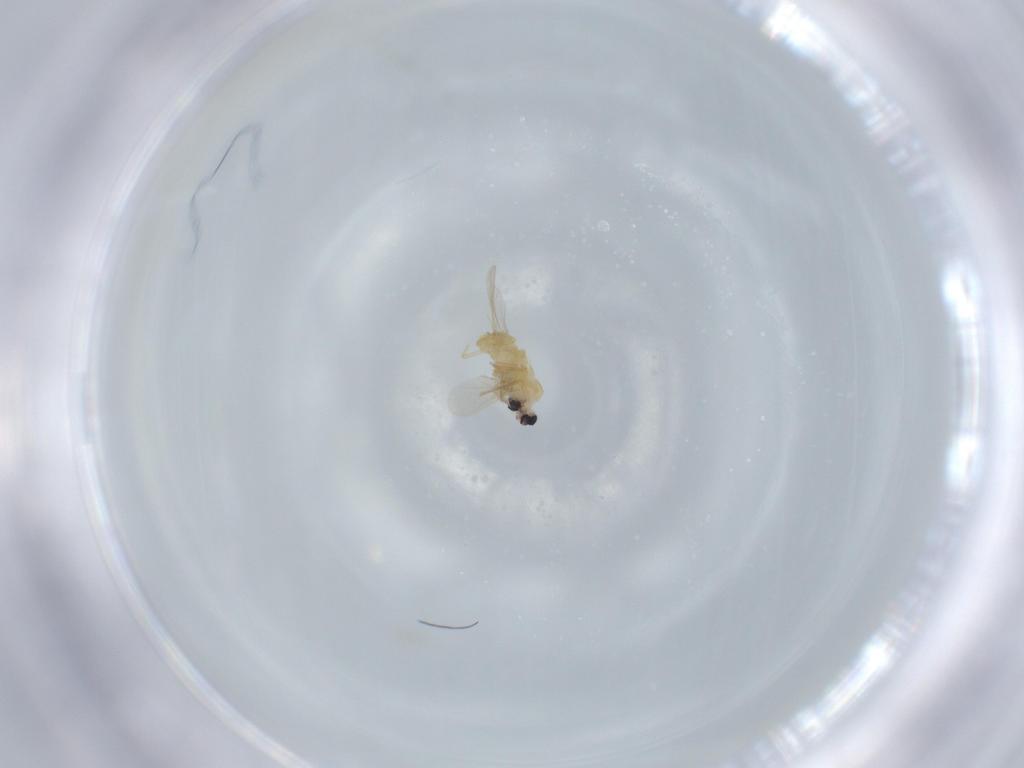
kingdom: Animalia
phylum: Arthropoda
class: Insecta
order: Diptera
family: Chironomidae
